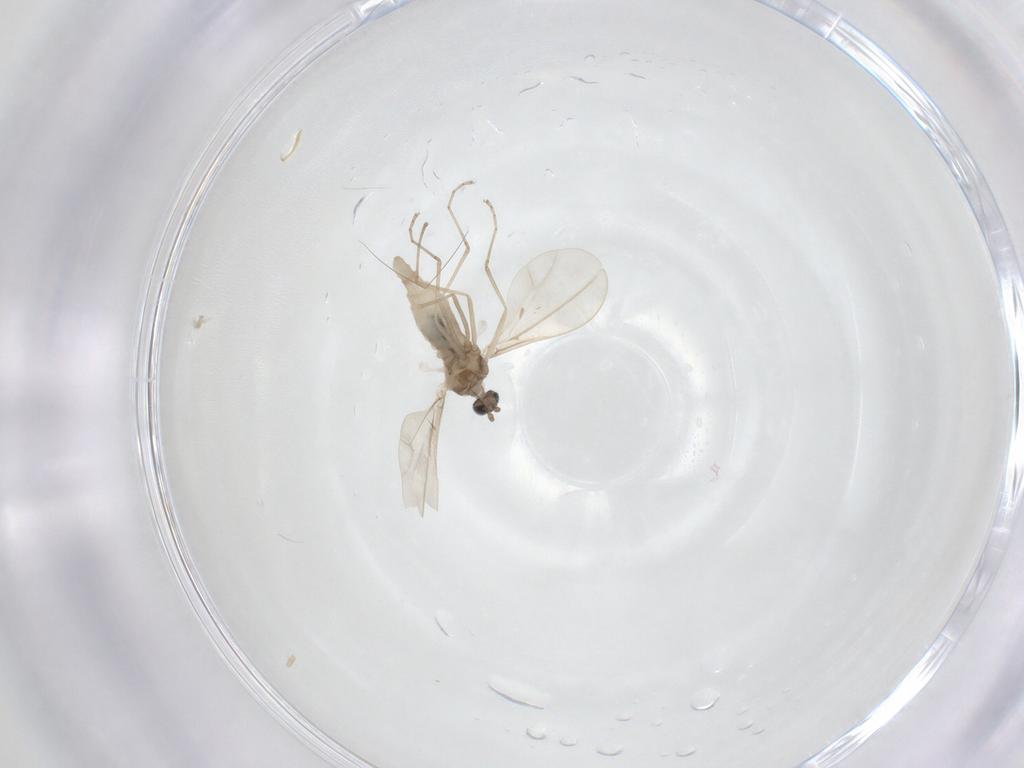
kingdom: Animalia
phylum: Arthropoda
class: Insecta
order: Diptera
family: Cecidomyiidae
